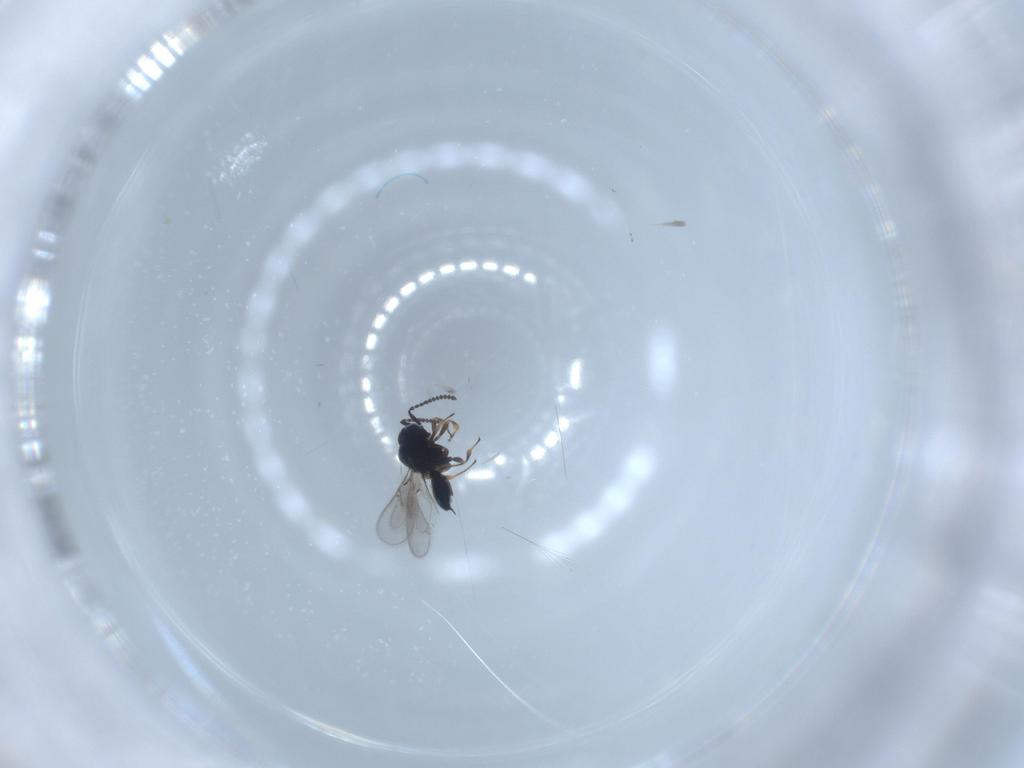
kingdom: Animalia
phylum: Arthropoda
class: Insecta
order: Hymenoptera
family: Scelionidae
